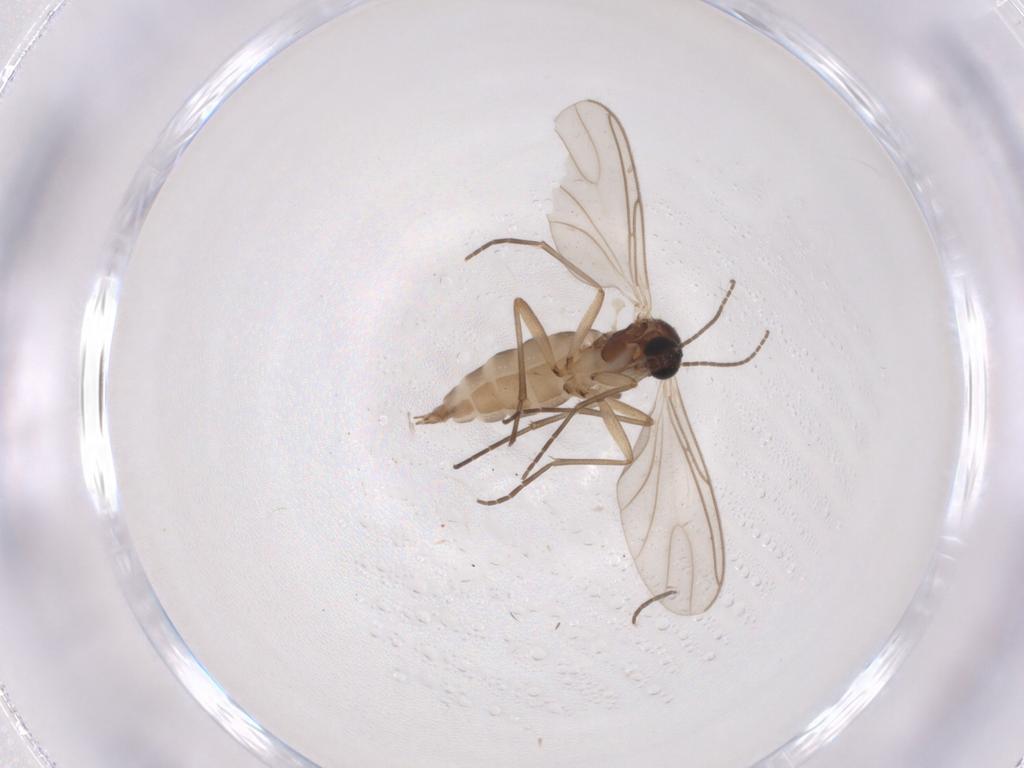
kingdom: Animalia
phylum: Arthropoda
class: Insecta
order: Diptera
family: Sciaridae
